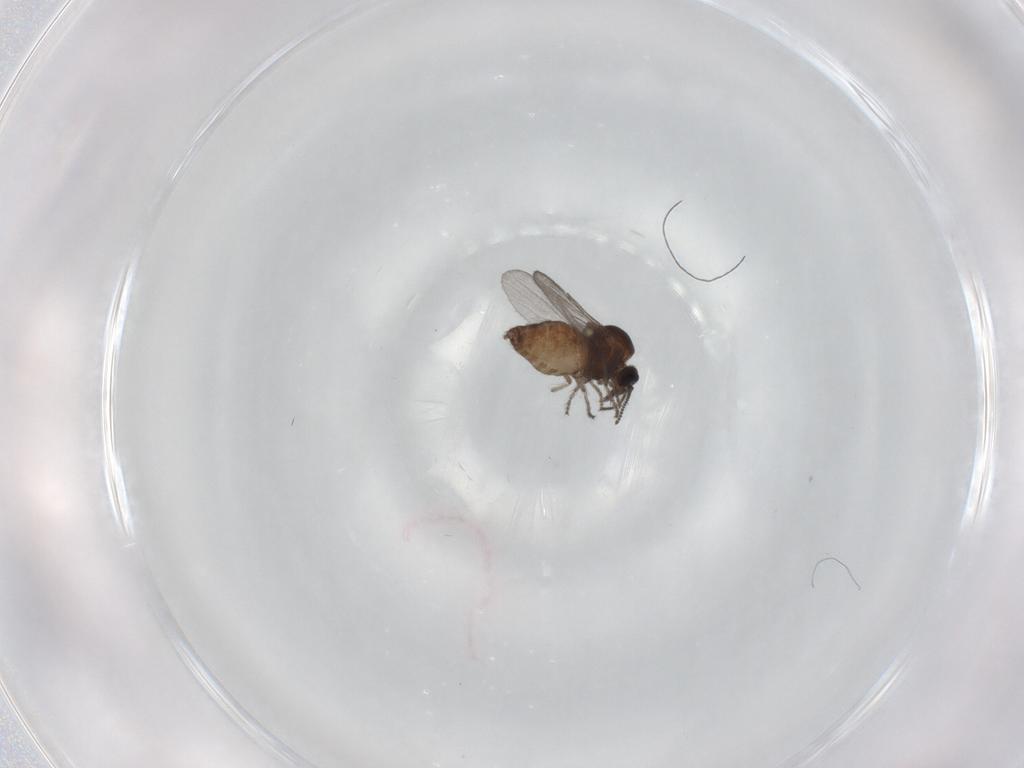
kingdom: Animalia
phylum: Arthropoda
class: Insecta
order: Diptera
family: Ceratopogonidae
